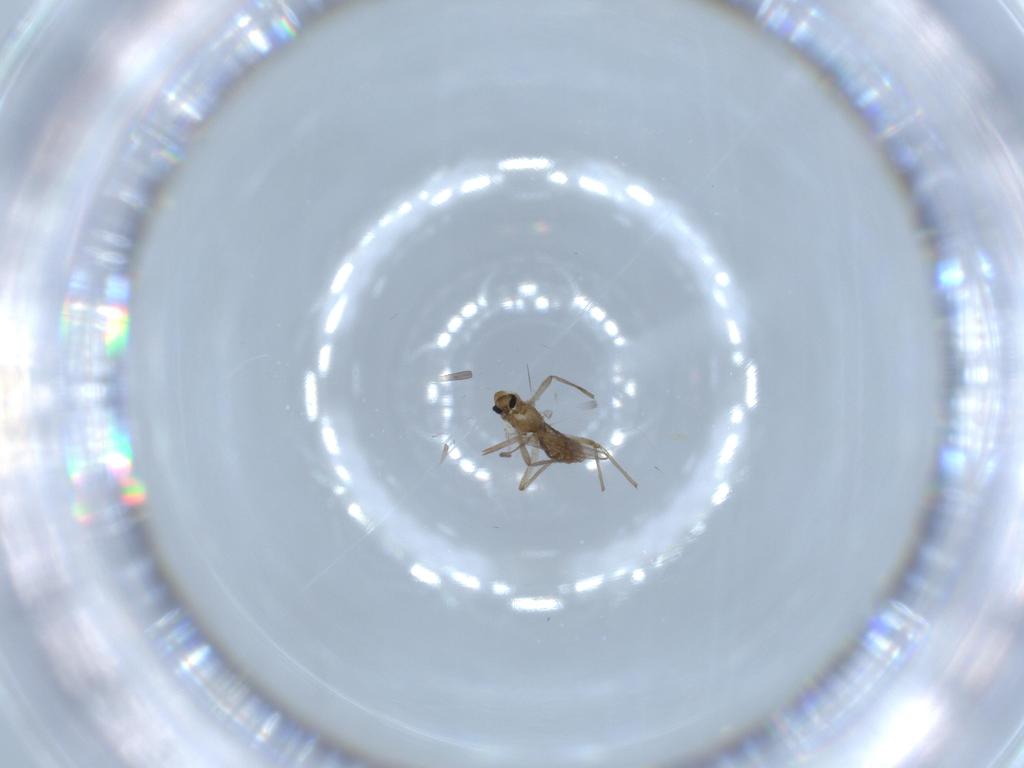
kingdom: Animalia
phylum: Arthropoda
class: Insecta
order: Diptera
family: Chironomidae
